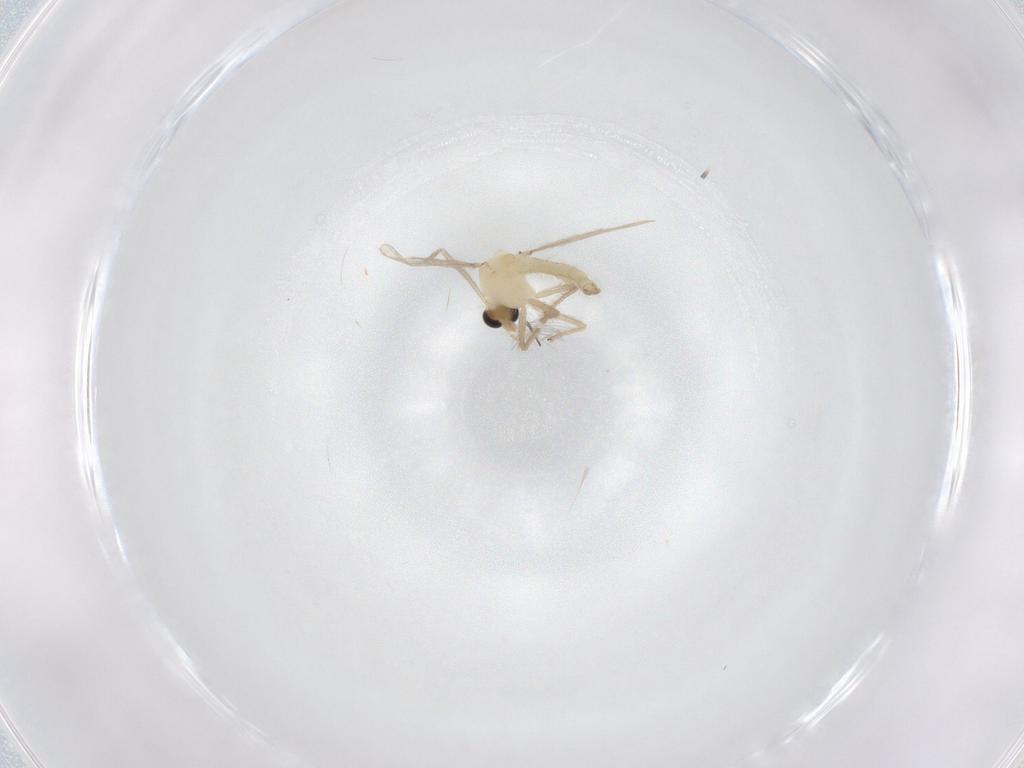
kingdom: Animalia
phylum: Arthropoda
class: Insecta
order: Diptera
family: Chironomidae
